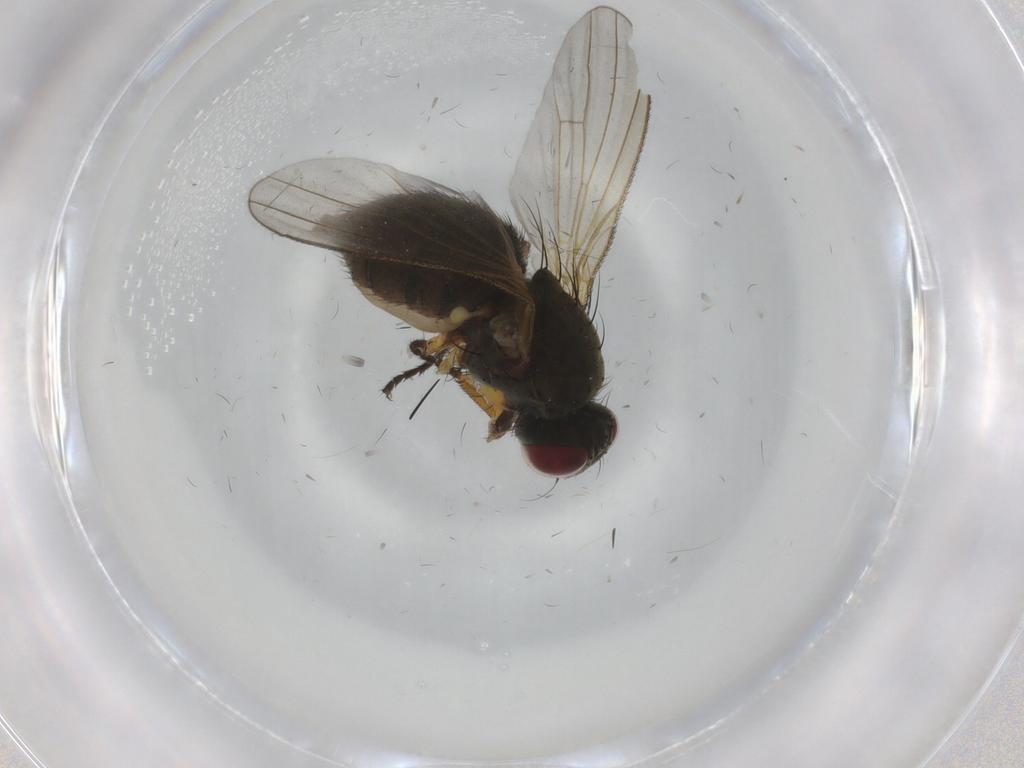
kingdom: Animalia
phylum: Arthropoda
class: Insecta
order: Diptera
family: Muscidae
